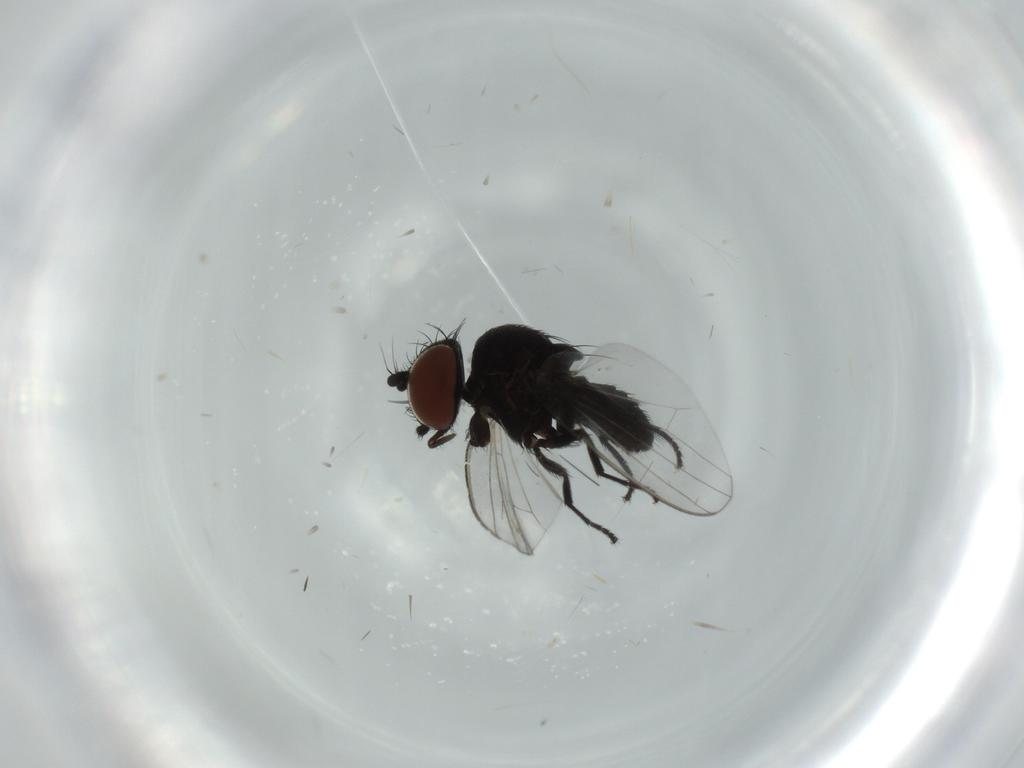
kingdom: Animalia
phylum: Arthropoda
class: Insecta
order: Diptera
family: Milichiidae
